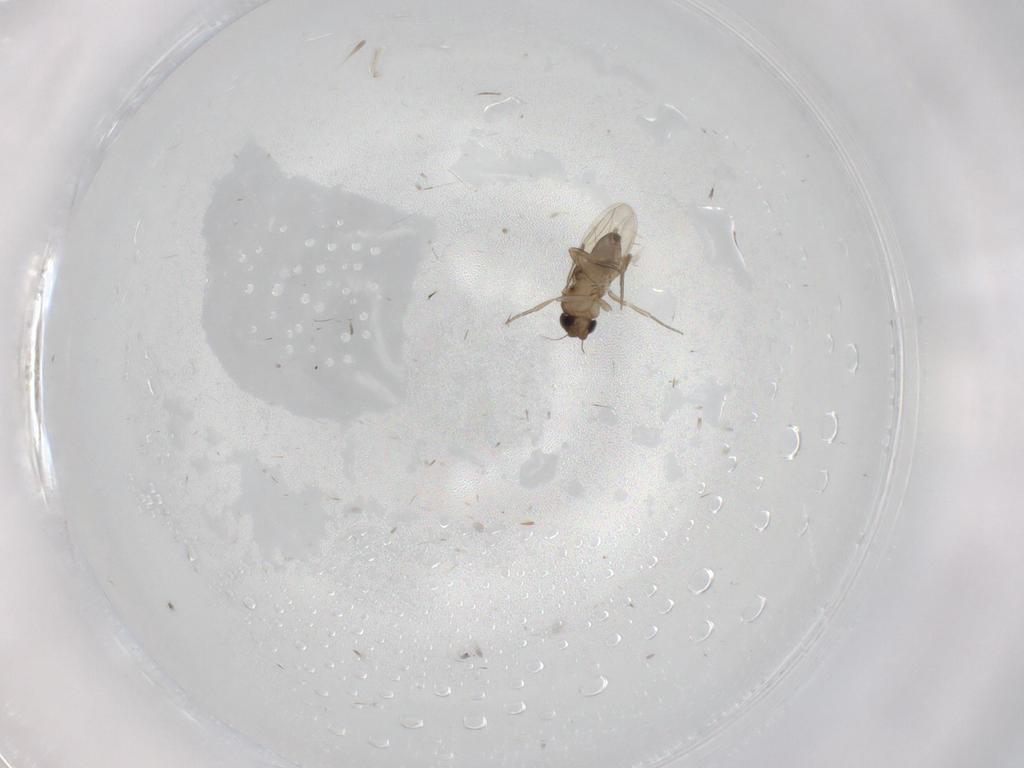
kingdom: Animalia
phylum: Arthropoda
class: Insecta
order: Diptera
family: Phoridae
